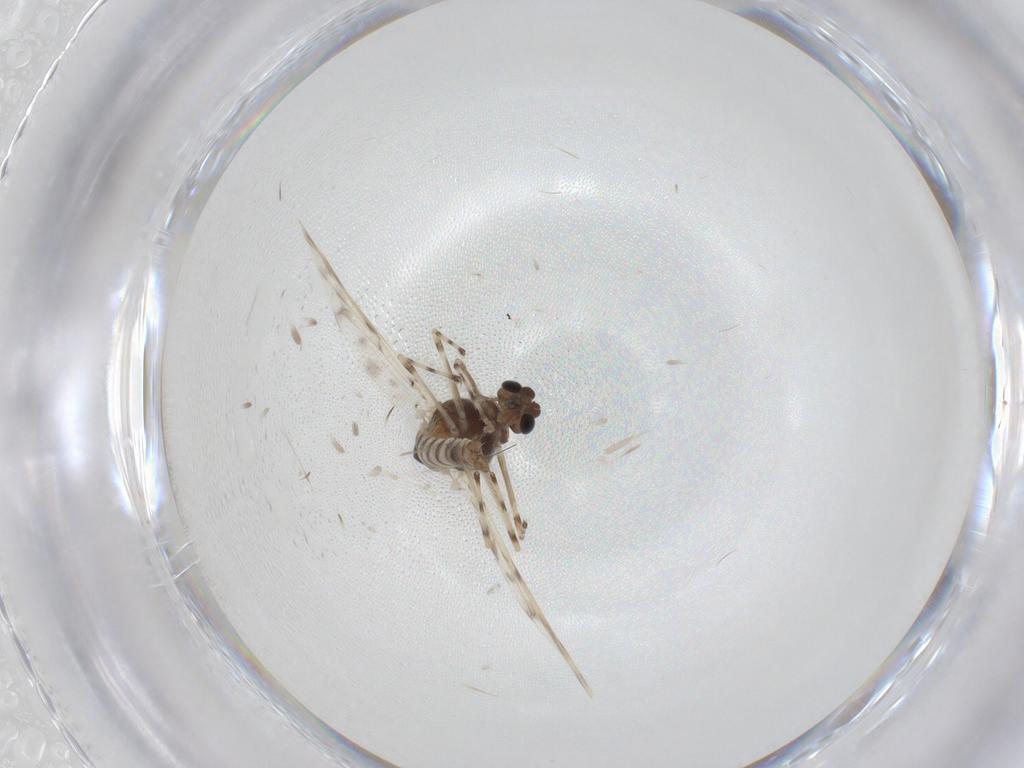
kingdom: Animalia
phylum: Arthropoda
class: Insecta
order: Diptera
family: Chironomidae
